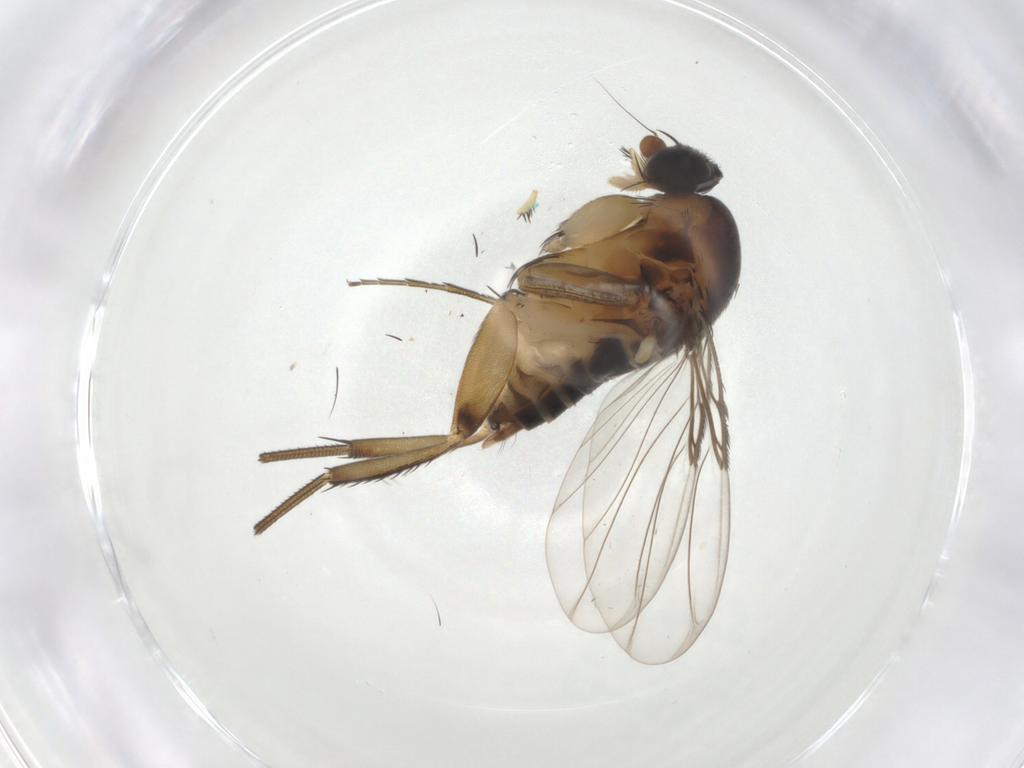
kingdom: Animalia
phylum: Arthropoda
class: Insecta
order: Diptera
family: Phoridae
